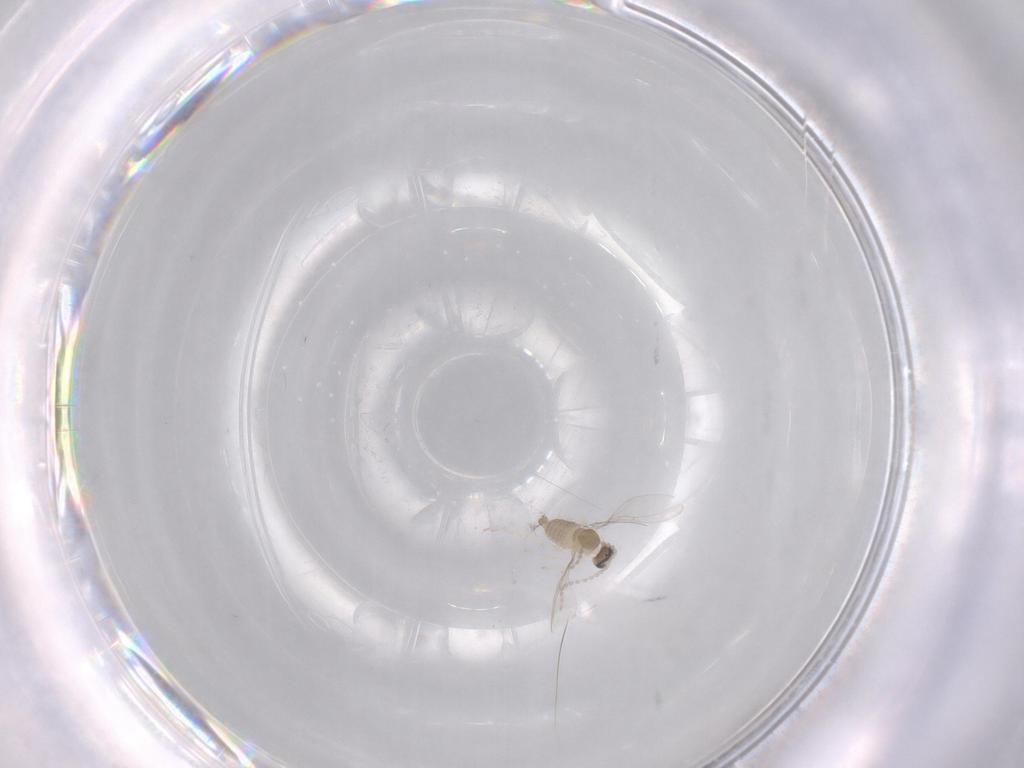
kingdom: Animalia
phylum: Arthropoda
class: Insecta
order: Diptera
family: Cecidomyiidae
